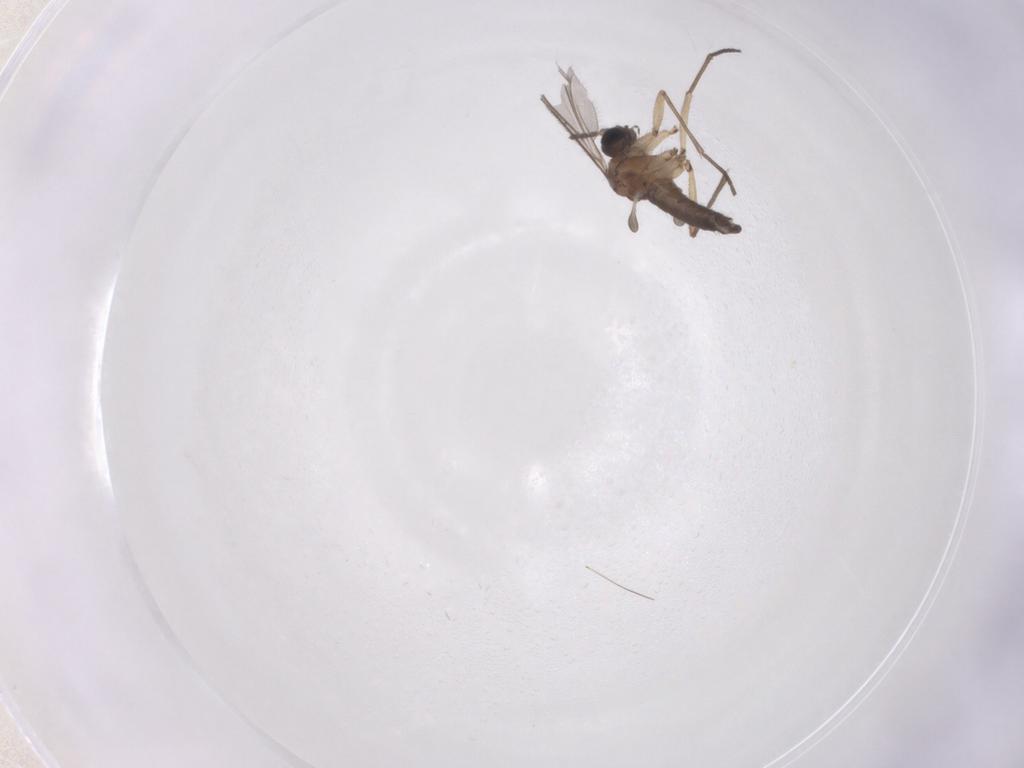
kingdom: Animalia
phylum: Arthropoda
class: Insecta
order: Diptera
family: Sciaridae
